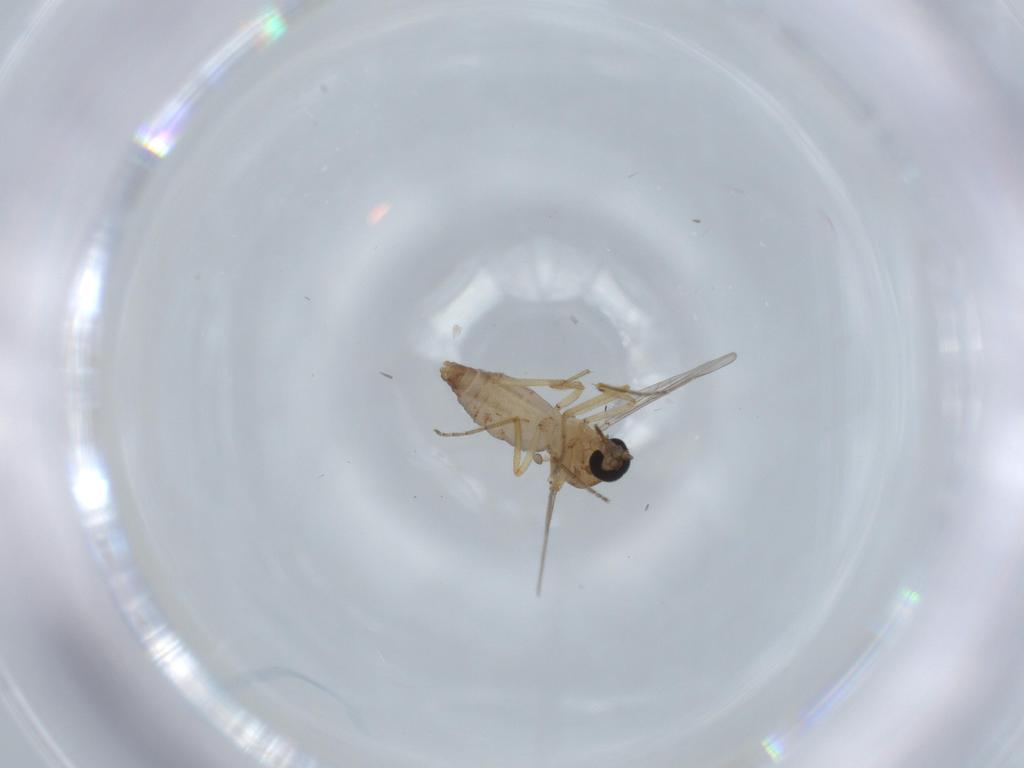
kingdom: Animalia
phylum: Arthropoda
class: Insecta
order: Diptera
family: Ceratopogonidae
